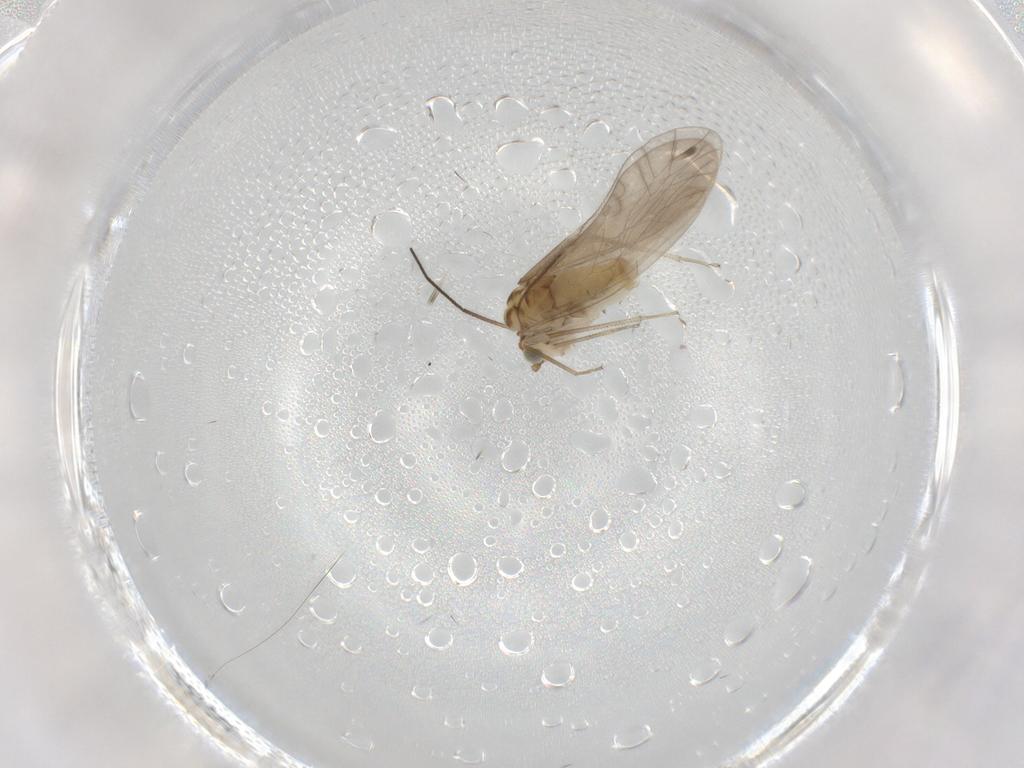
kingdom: Animalia
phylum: Arthropoda
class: Insecta
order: Psocodea
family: Caeciliusidae
